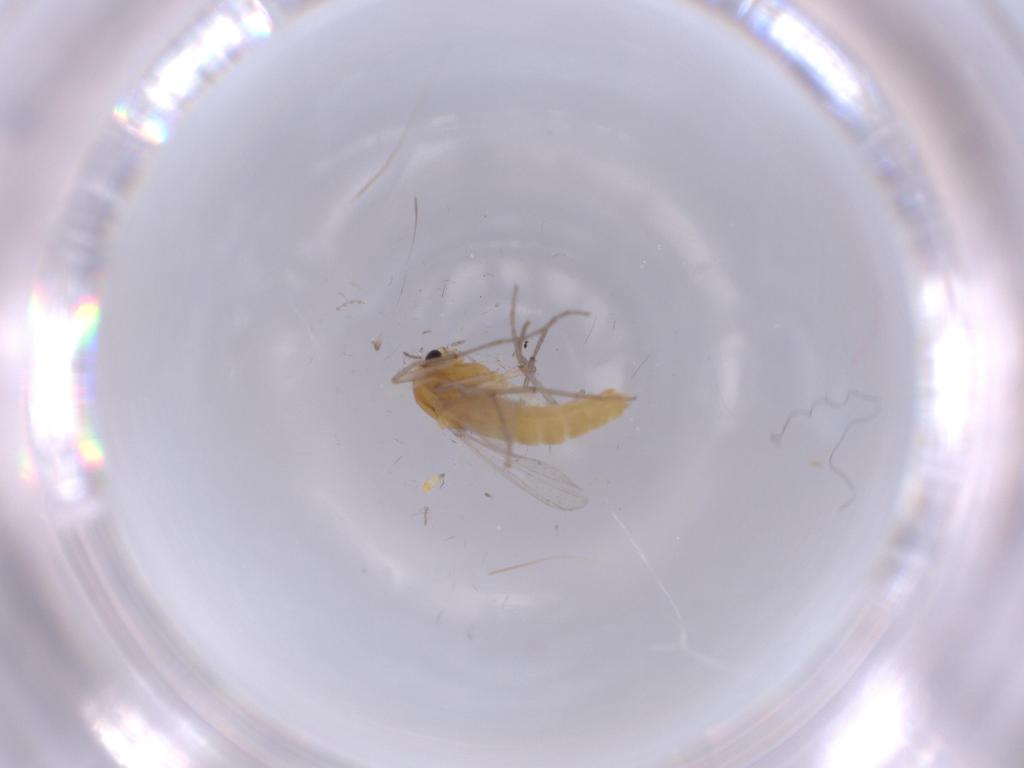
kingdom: Animalia
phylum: Arthropoda
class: Insecta
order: Diptera
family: Chironomidae
